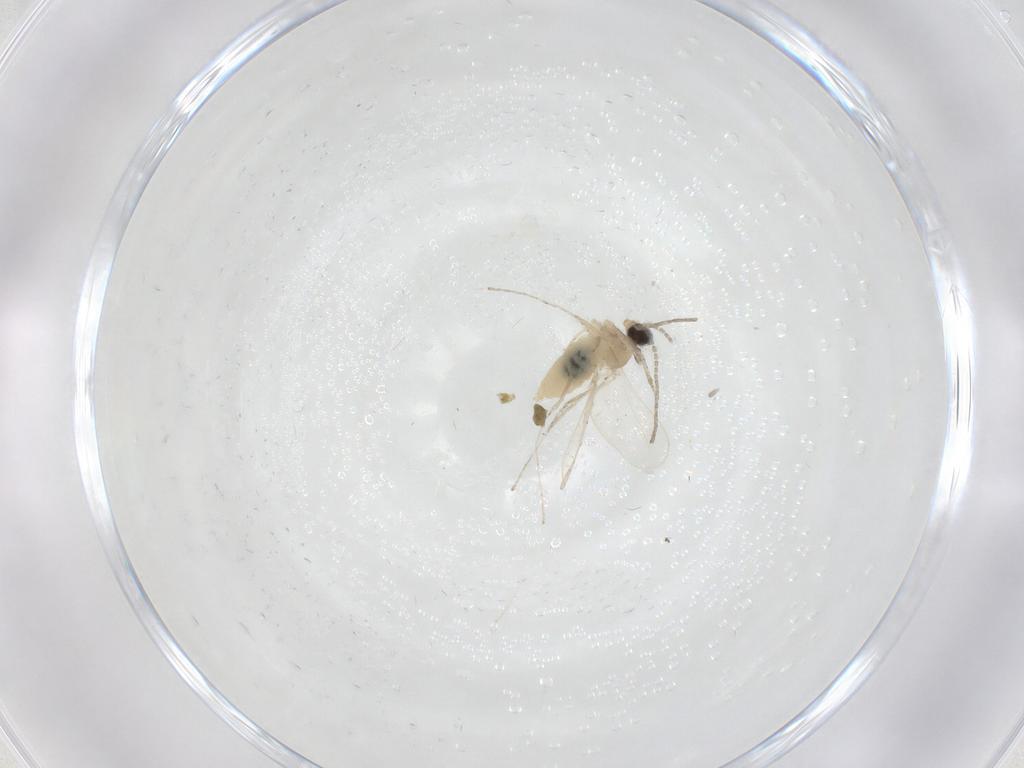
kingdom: Animalia
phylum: Arthropoda
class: Insecta
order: Diptera
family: Cecidomyiidae
